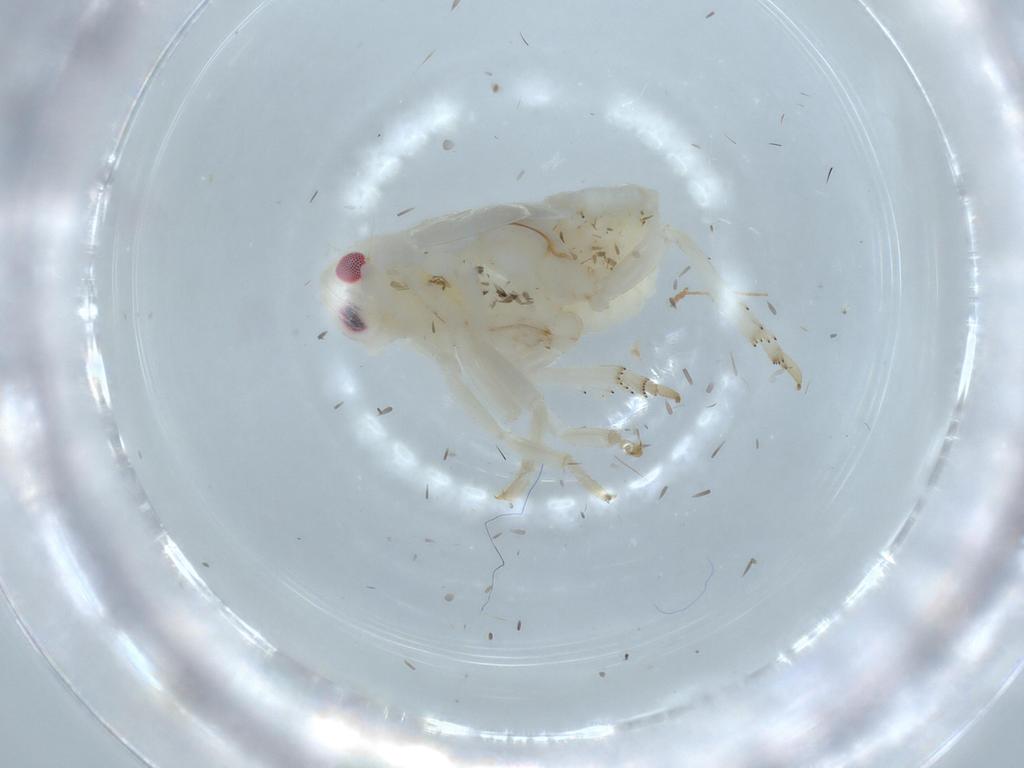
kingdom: Animalia
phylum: Arthropoda
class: Insecta
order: Hemiptera
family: Flatidae
